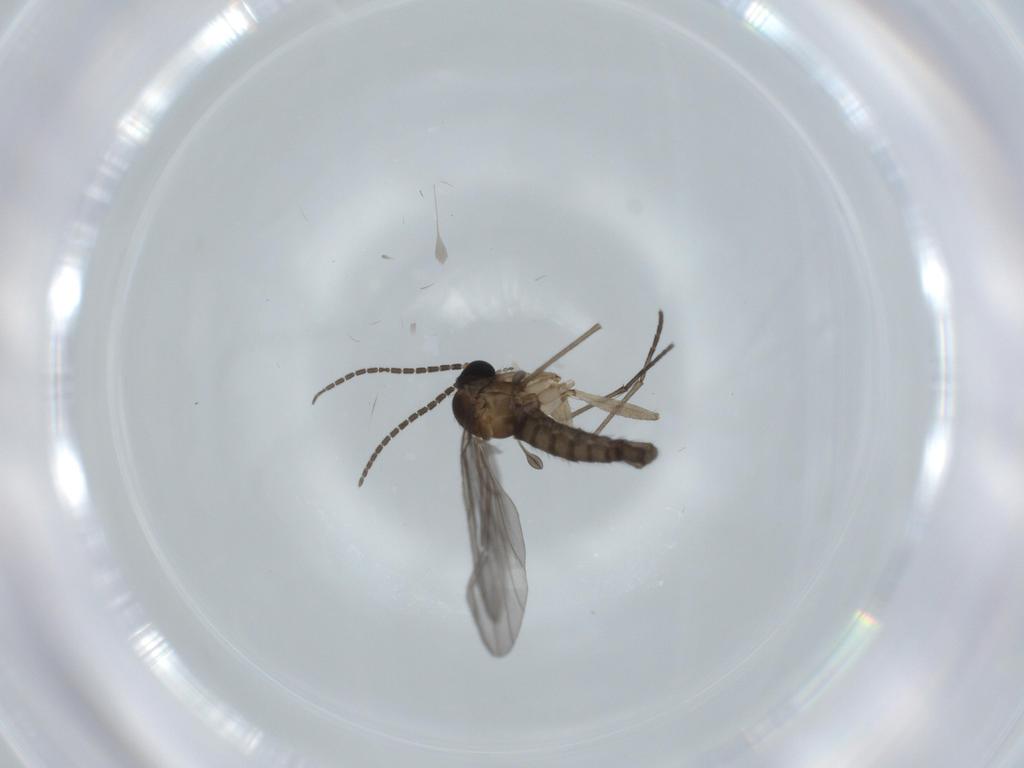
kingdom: Animalia
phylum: Arthropoda
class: Insecta
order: Diptera
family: Sciaridae
